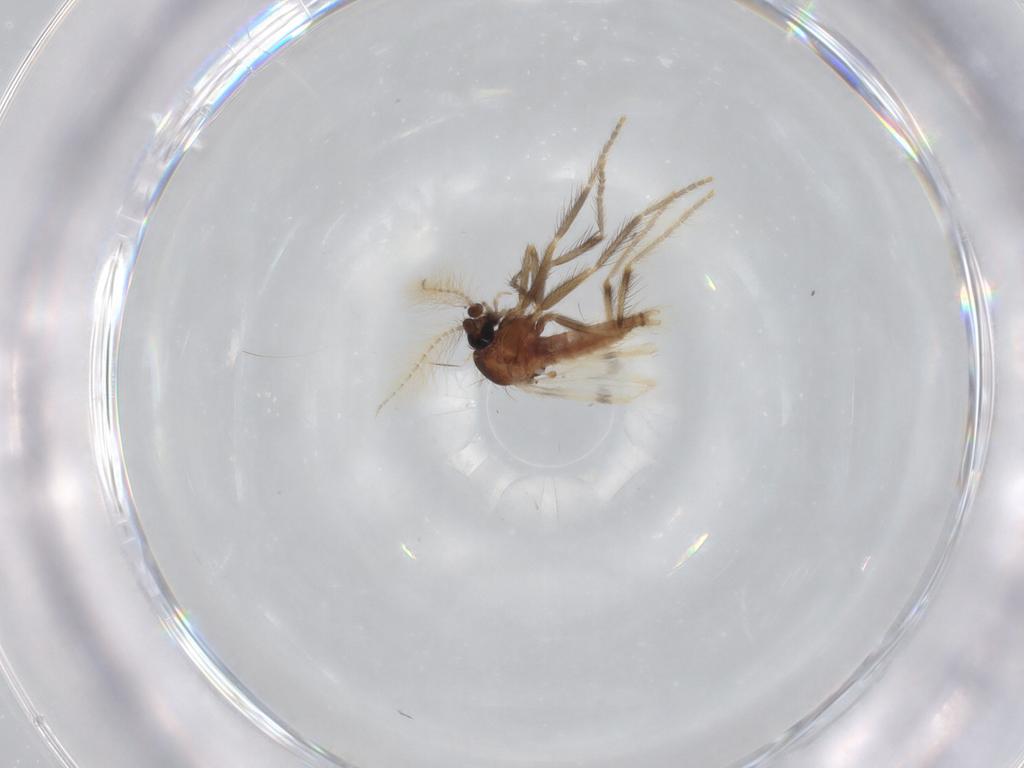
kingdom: Animalia
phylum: Arthropoda
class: Insecta
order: Diptera
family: Corethrellidae
